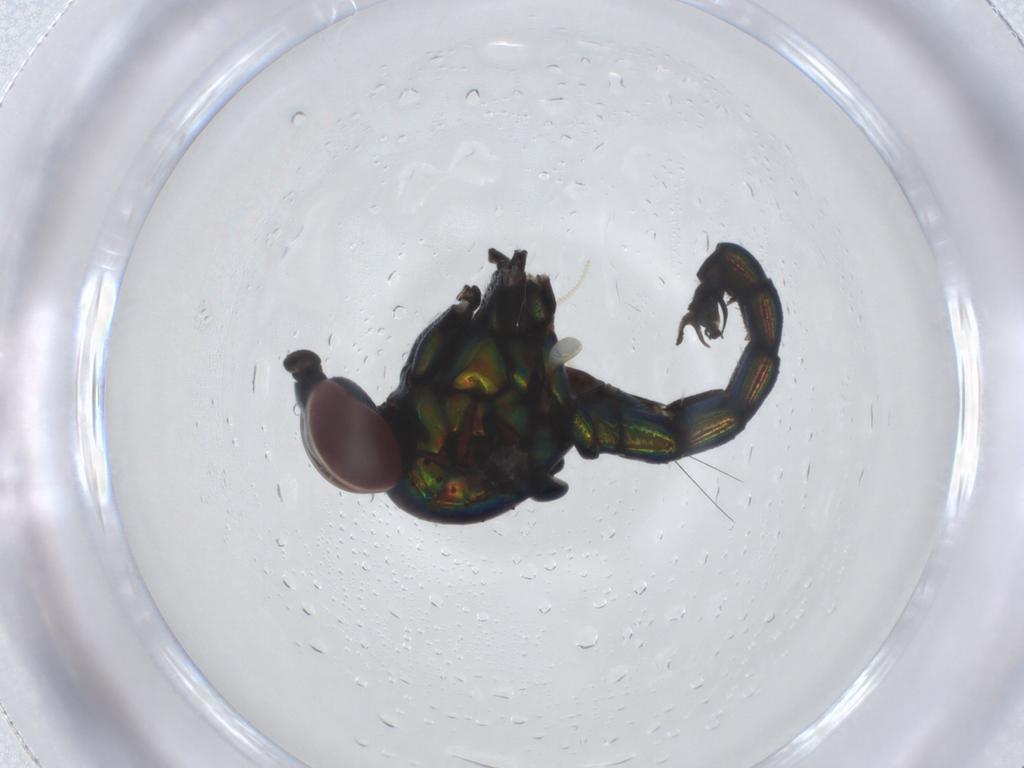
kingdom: Animalia
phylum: Arthropoda
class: Insecta
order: Diptera
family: Dolichopodidae
